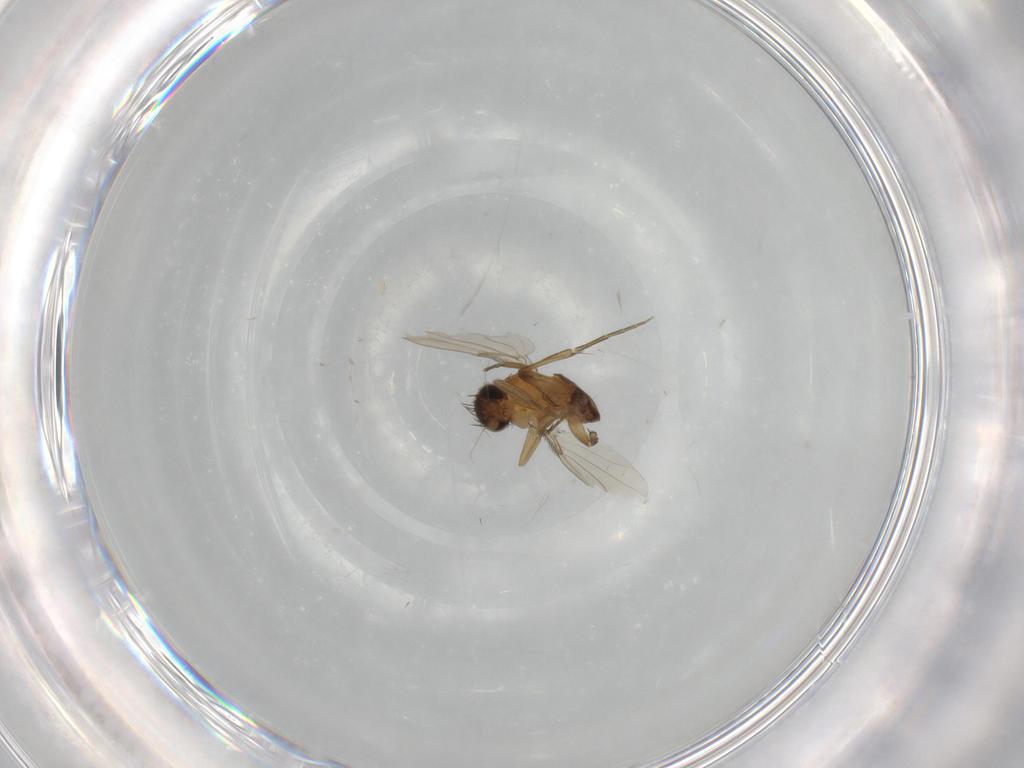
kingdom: Animalia
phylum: Arthropoda
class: Insecta
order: Diptera
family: Phoridae
